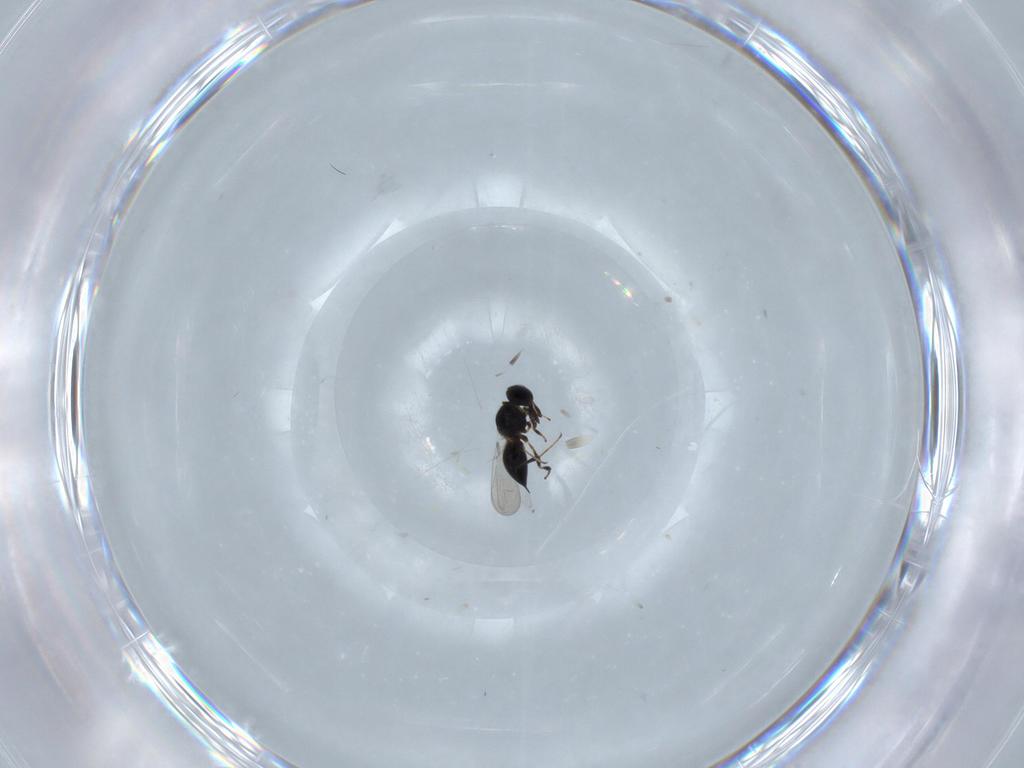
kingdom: Animalia
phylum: Arthropoda
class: Insecta
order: Hymenoptera
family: Platygastridae
